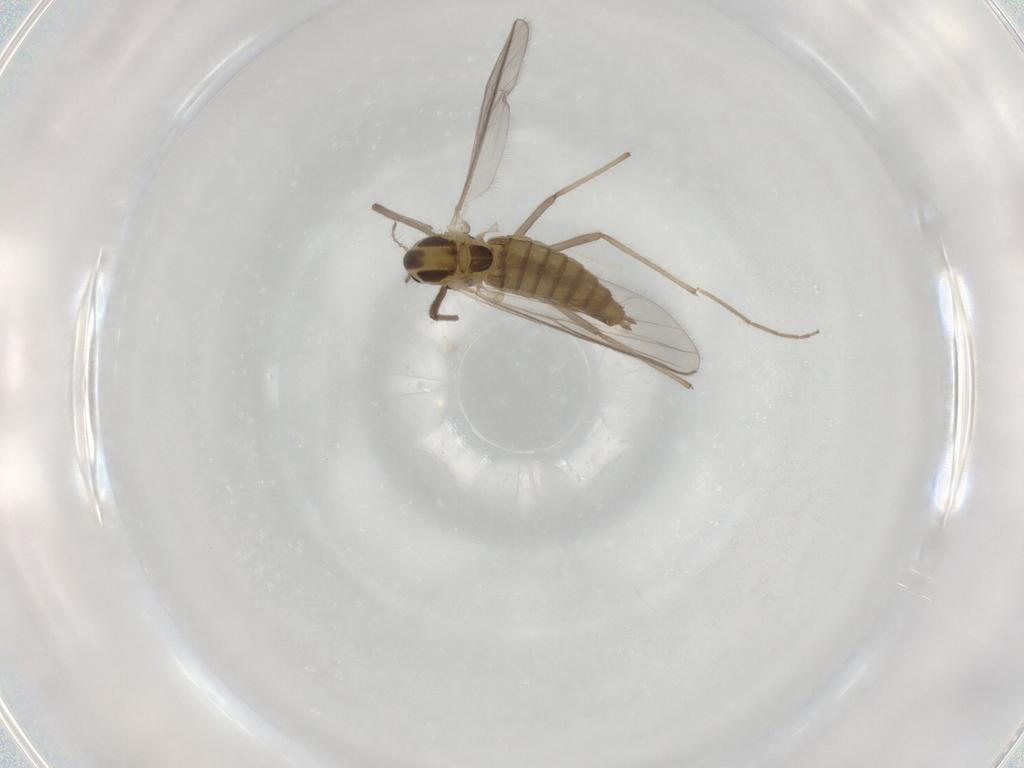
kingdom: Animalia
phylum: Arthropoda
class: Insecta
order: Diptera
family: Chironomidae
